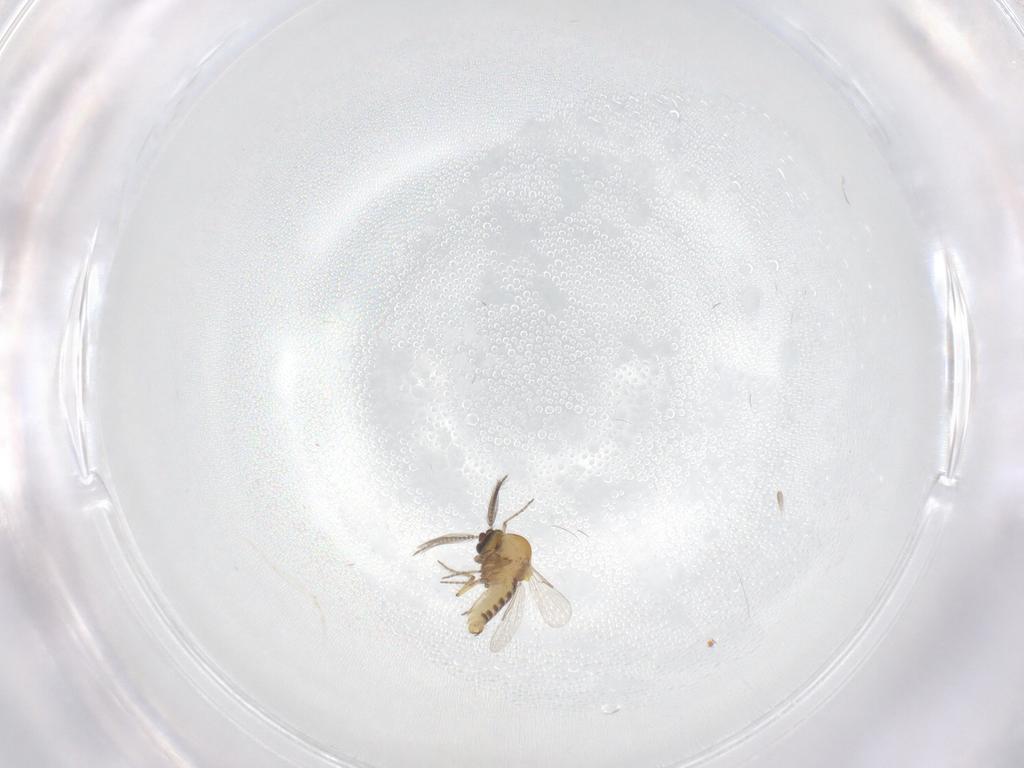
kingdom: Animalia
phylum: Arthropoda
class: Insecta
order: Diptera
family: Ceratopogonidae
